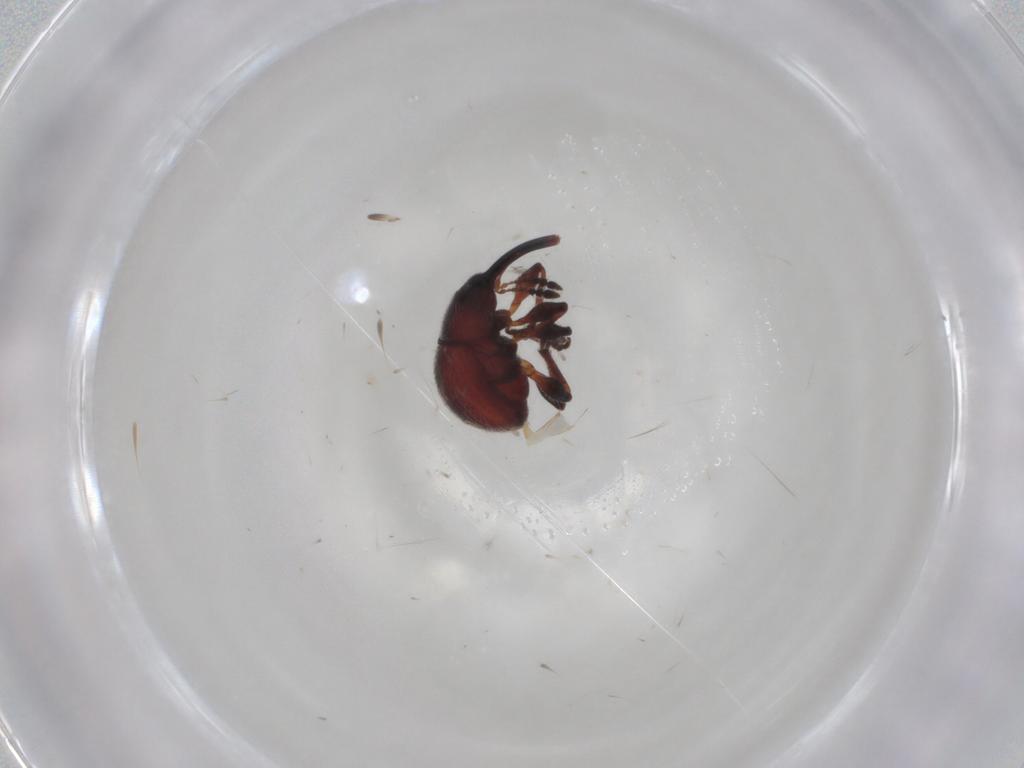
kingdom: Animalia
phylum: Arthropoda
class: Insecta
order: Coleoptera
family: Brentidae
